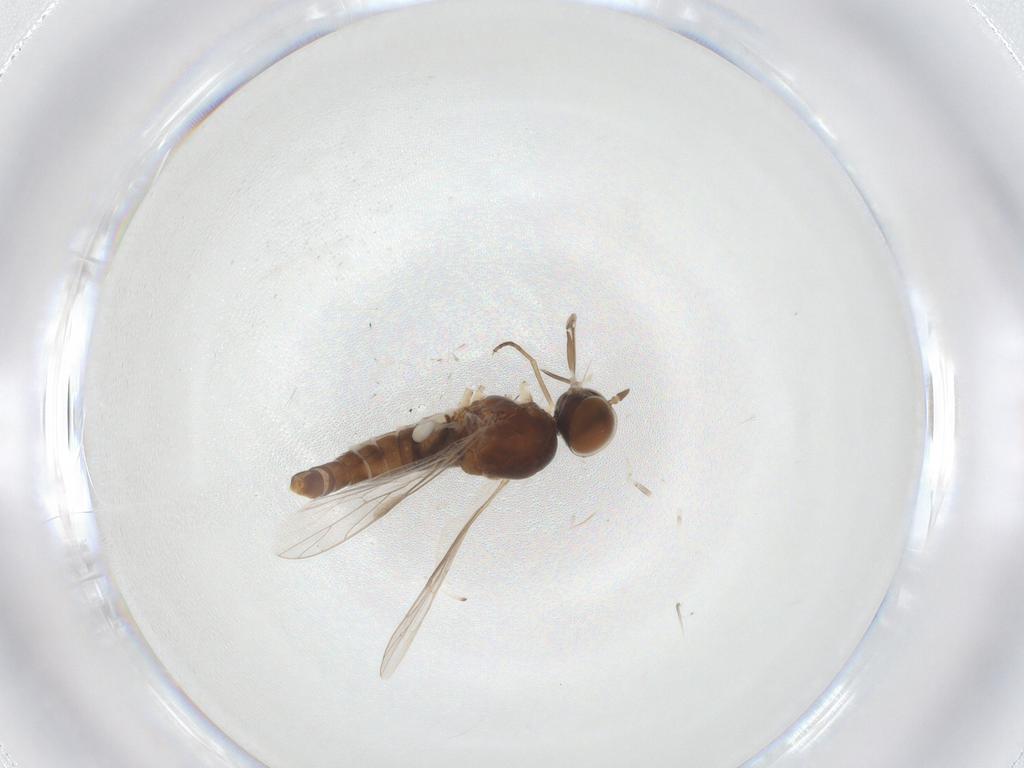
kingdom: Animalia
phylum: Arthropoda
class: Insecta
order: Diptera
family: Scenopinidae
